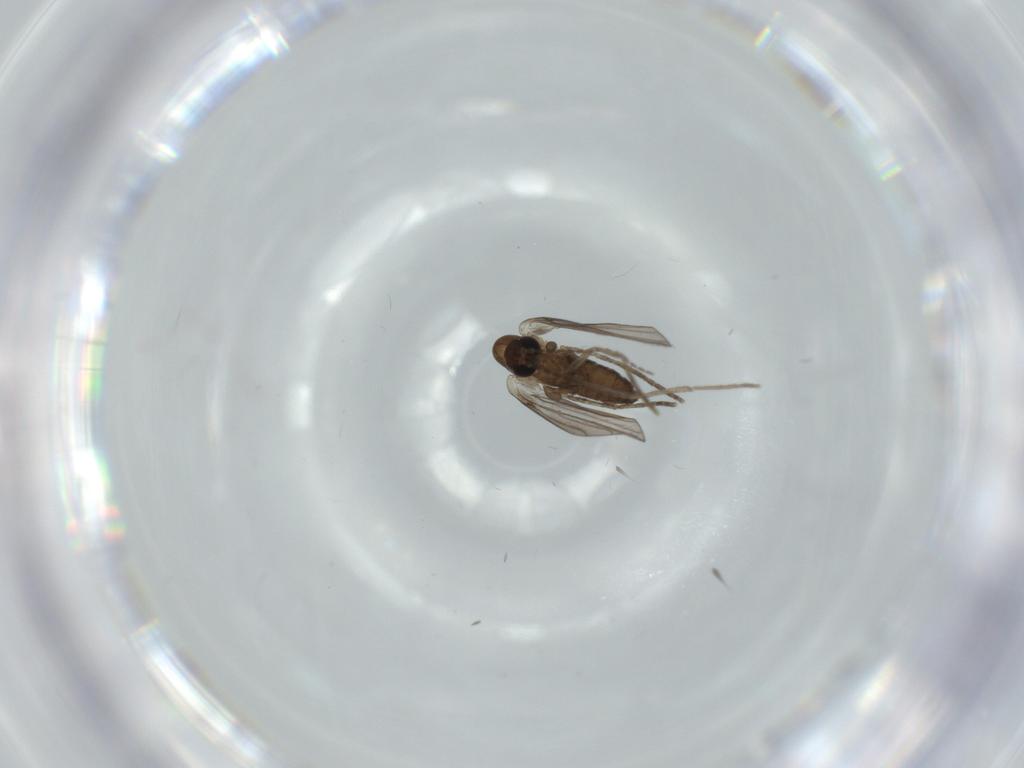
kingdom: Animalia
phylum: Arthropoda
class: Insecta
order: Diptera
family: Psychodidae
